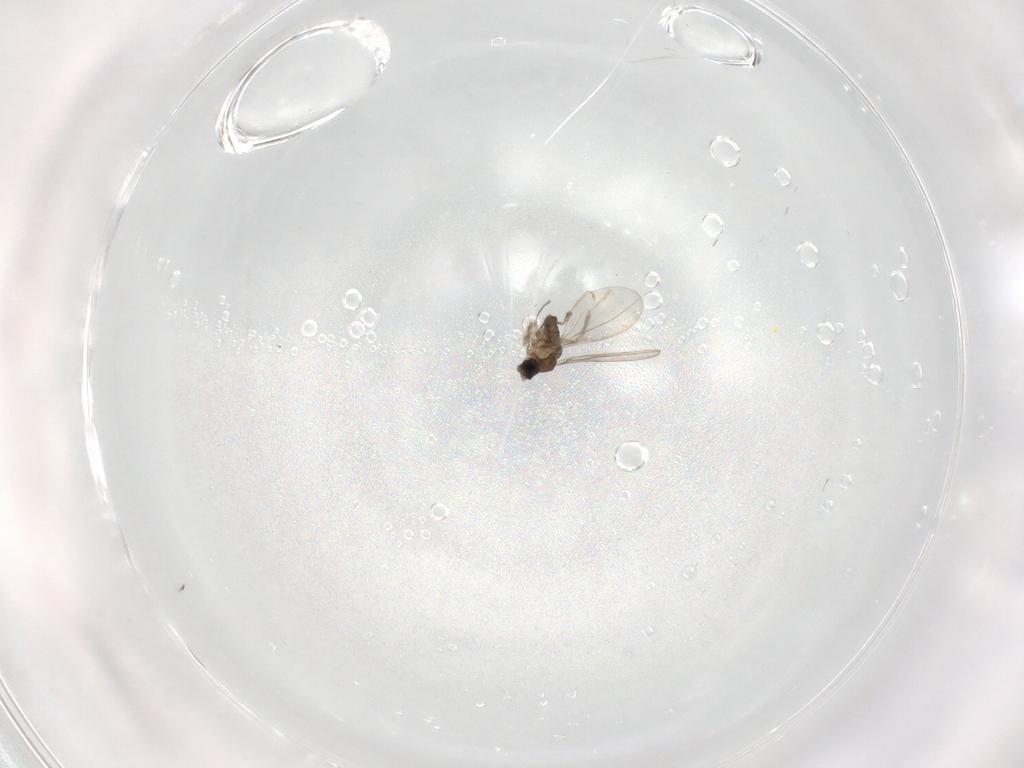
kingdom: Animalia
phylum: Arthropoda
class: Insecta
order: Diptera
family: Cecidomyiidae
